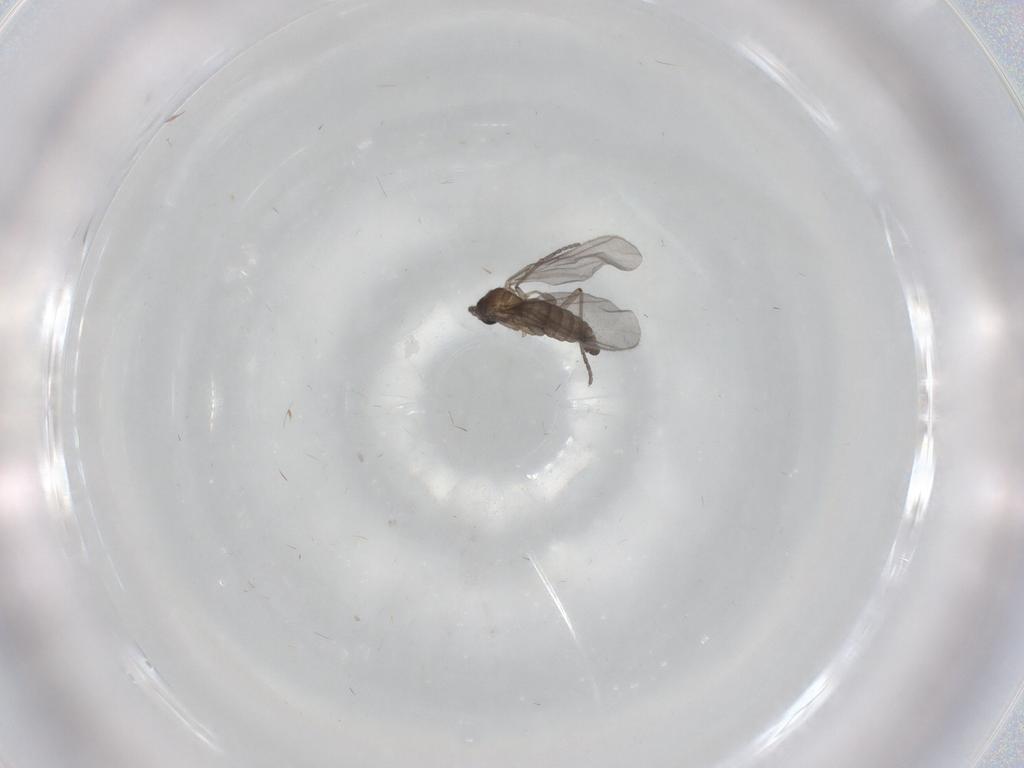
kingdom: Animalia
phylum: Arthropoda
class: Insecta
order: Diptera
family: Sciaridae
